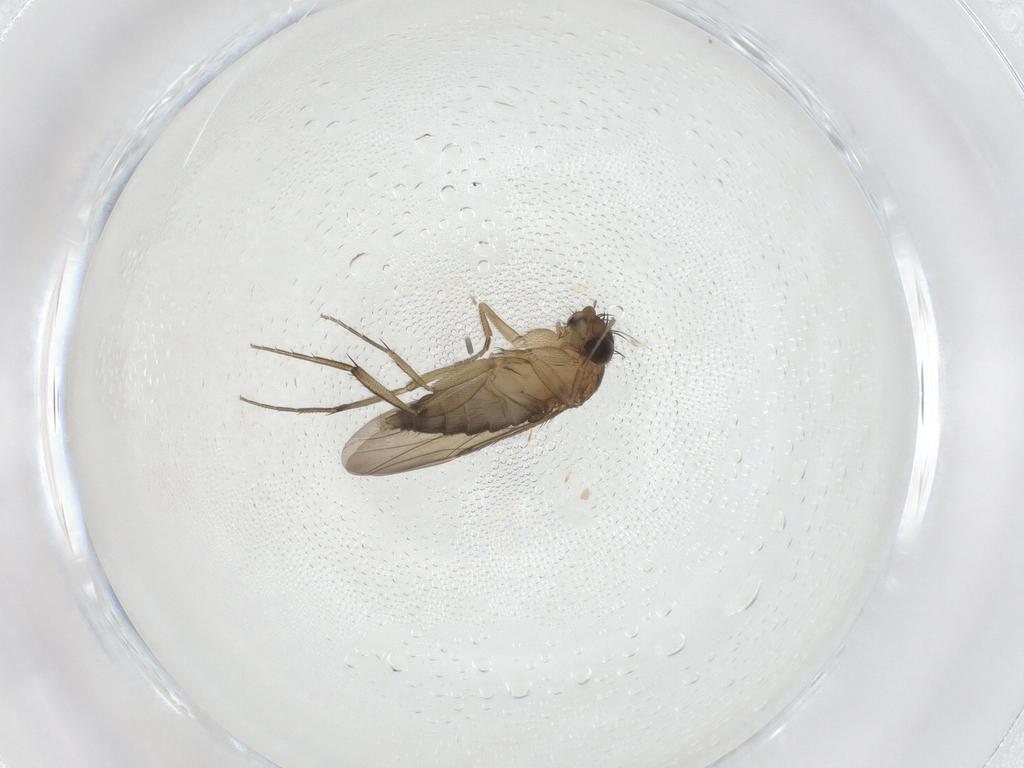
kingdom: Animalia
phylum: Arthropoda
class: Insecta
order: Diptera
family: Phoridae
